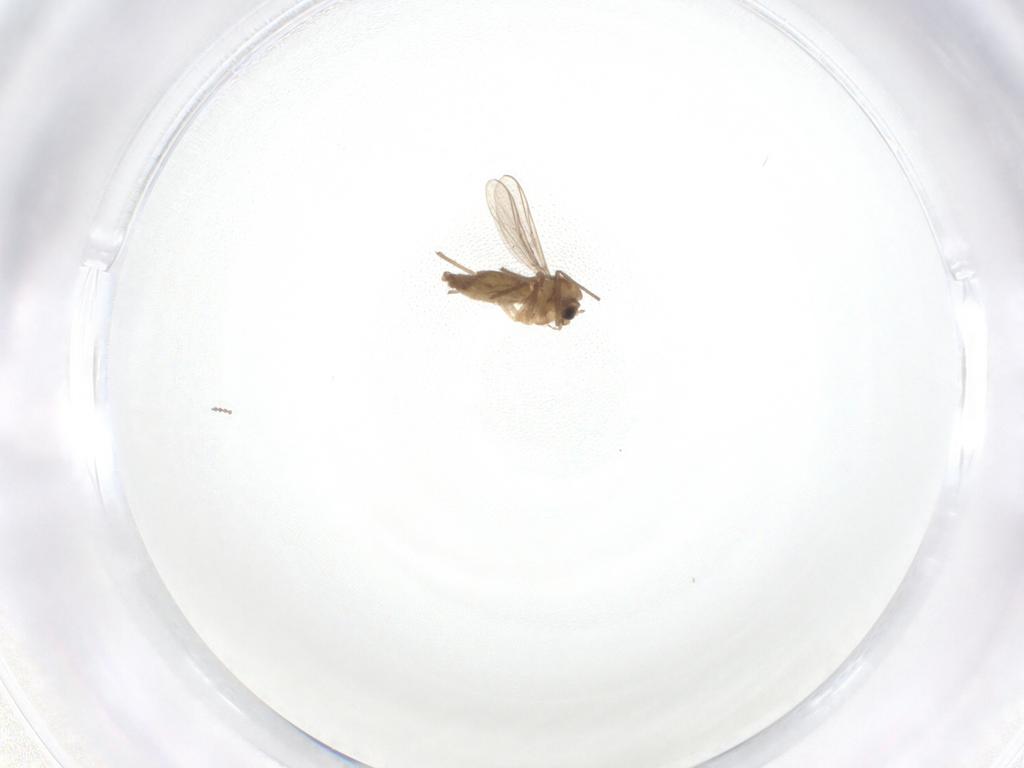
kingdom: Animalia
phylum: Arthropoda
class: Insecta
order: Diptera
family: Chironomidae
